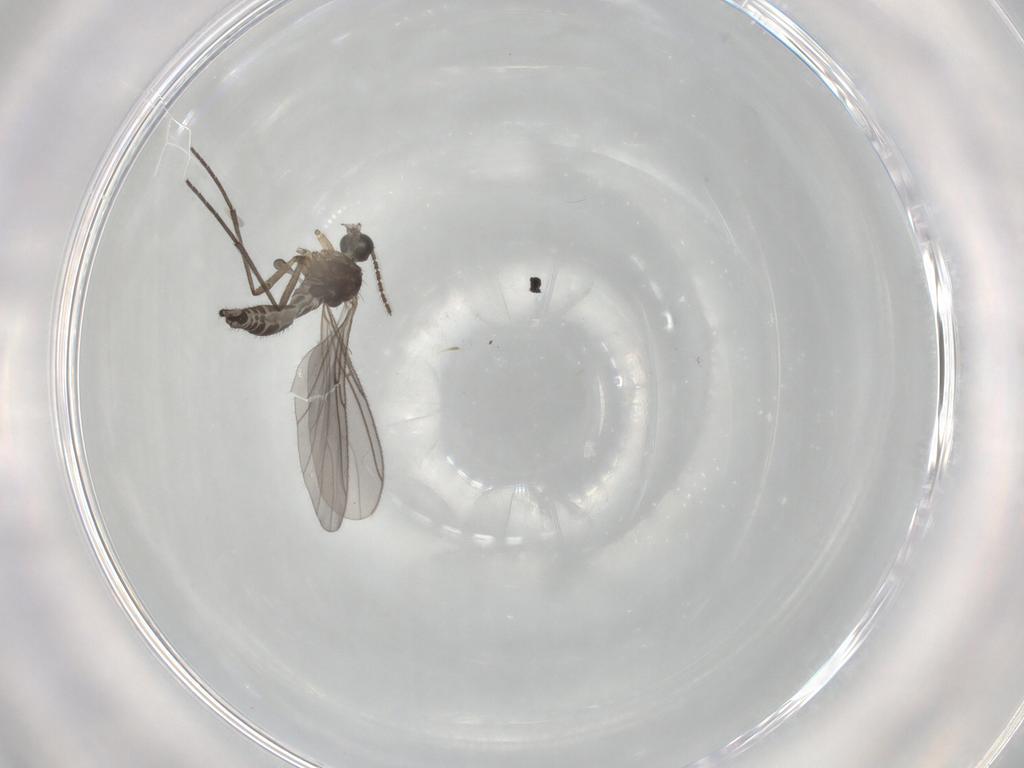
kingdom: Animalia
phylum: Arthropoda
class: Insecta
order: Diptera
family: Sciaridae
